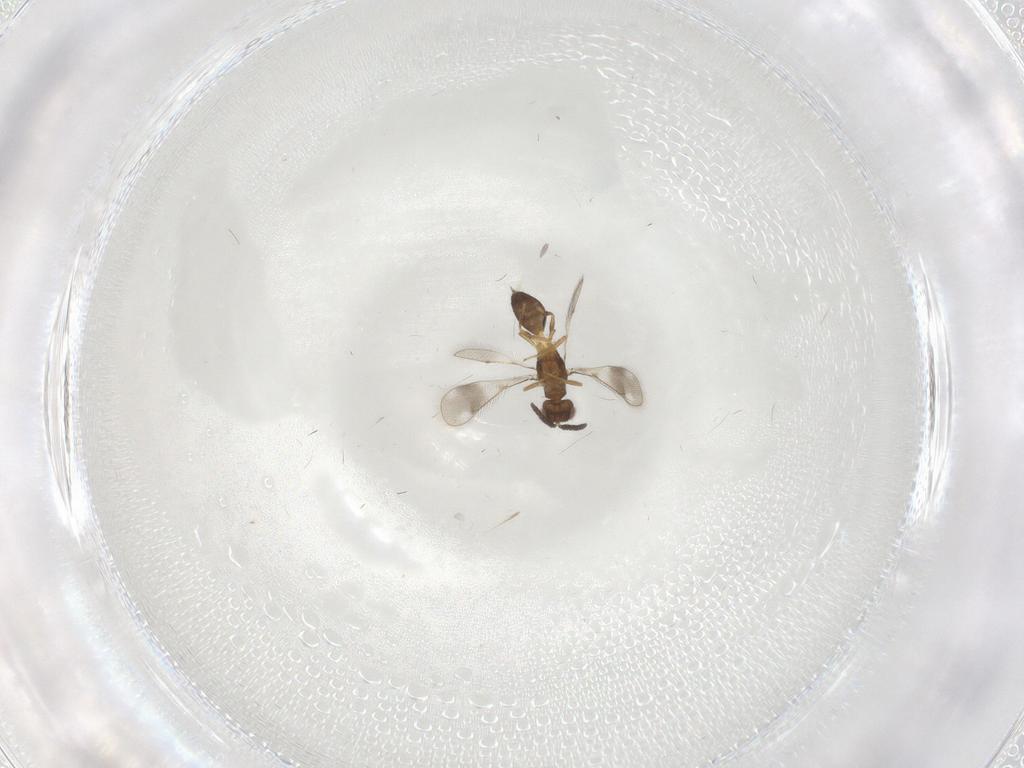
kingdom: Animalia
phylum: Arthropoda
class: Insecta
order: Hymenoptera
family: Pteromalidae
